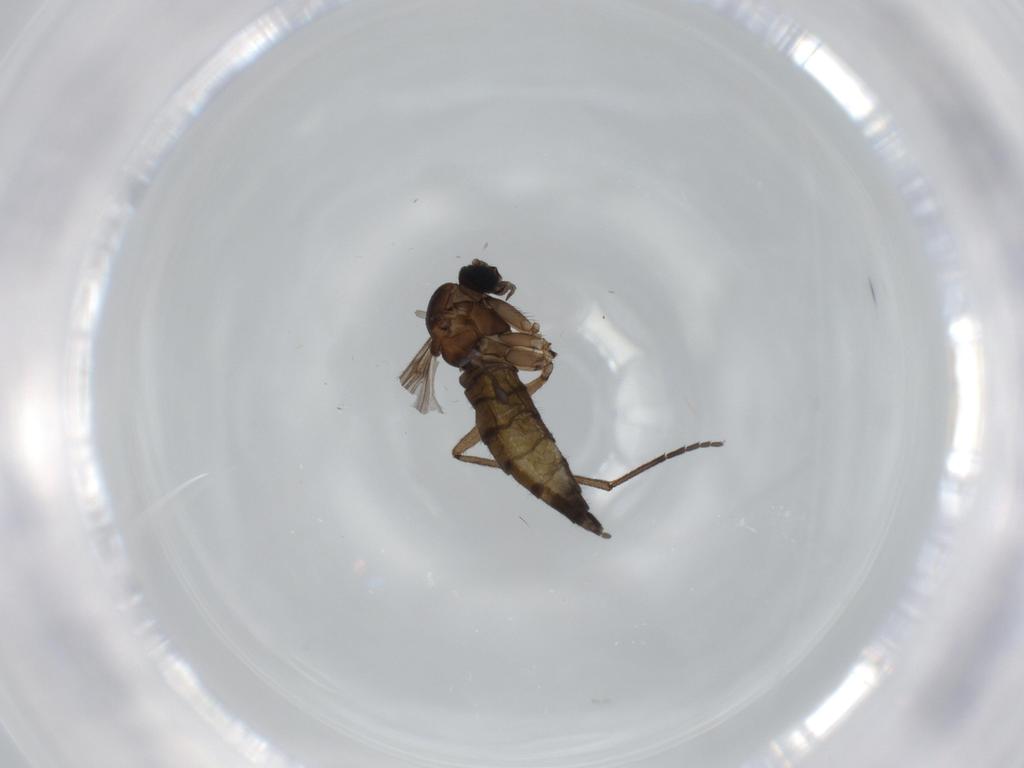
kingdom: Animalia
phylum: Arthropoda
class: Insecta
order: Diptera
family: Sciaridae
